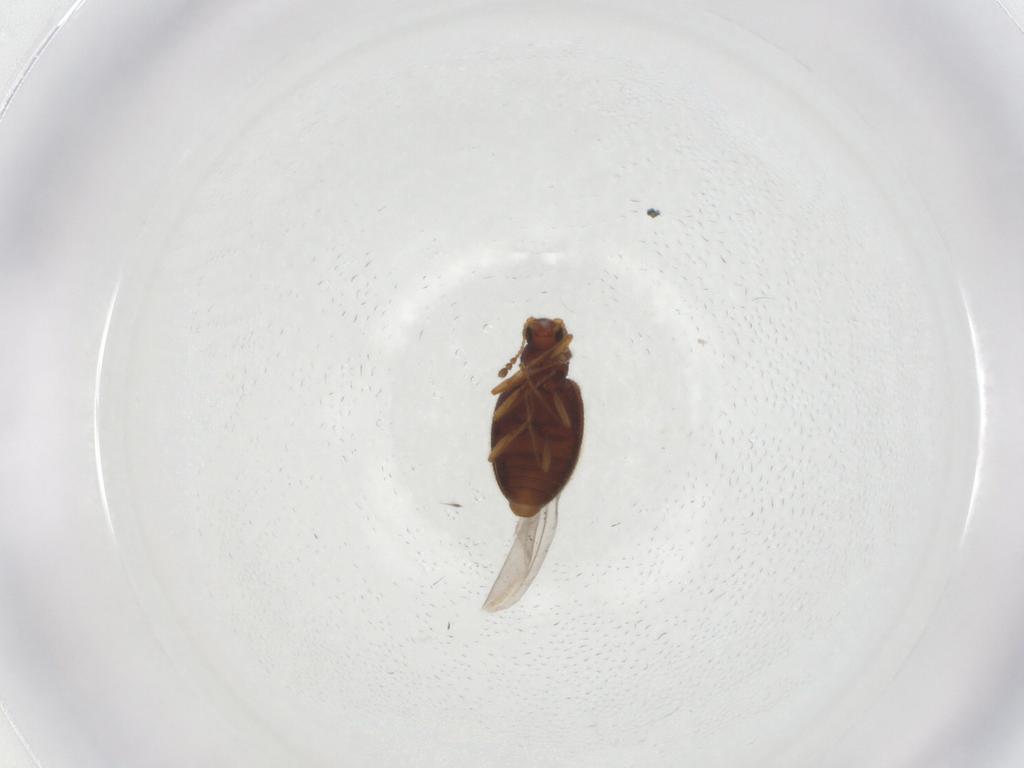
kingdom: Animalia
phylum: Arthropoda
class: Insecta
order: Coleoptera
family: Latridiidae
